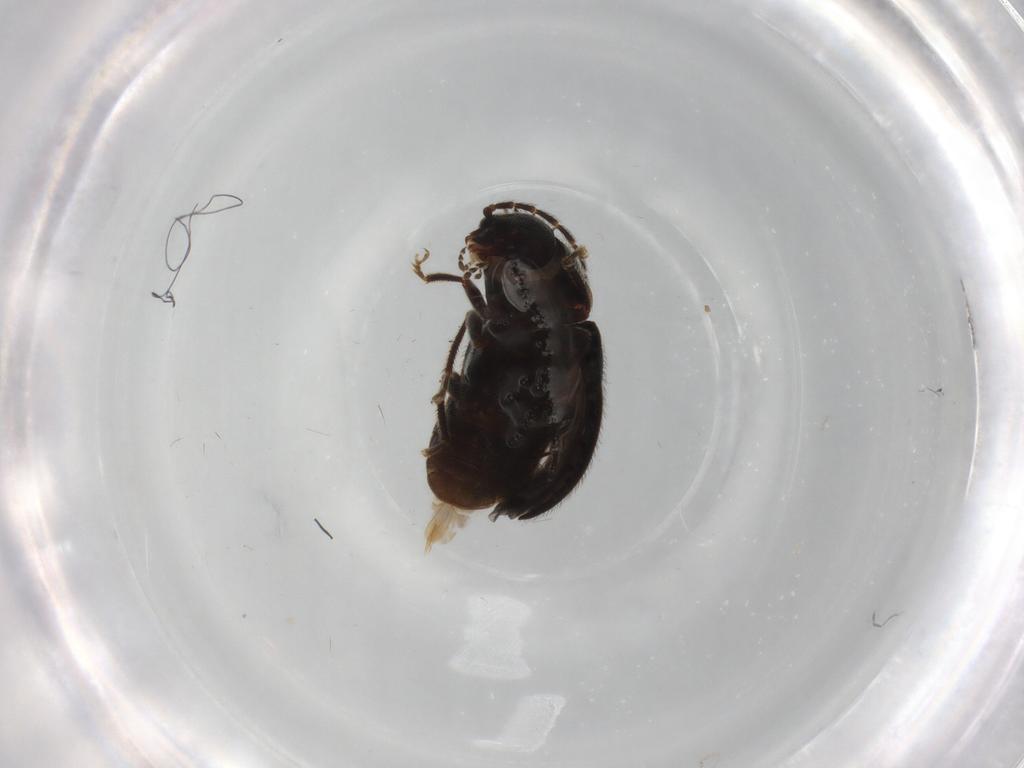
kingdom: Animalia
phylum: Arthropoda
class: Insecta
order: Coleoptera
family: Ptilodactylidae
